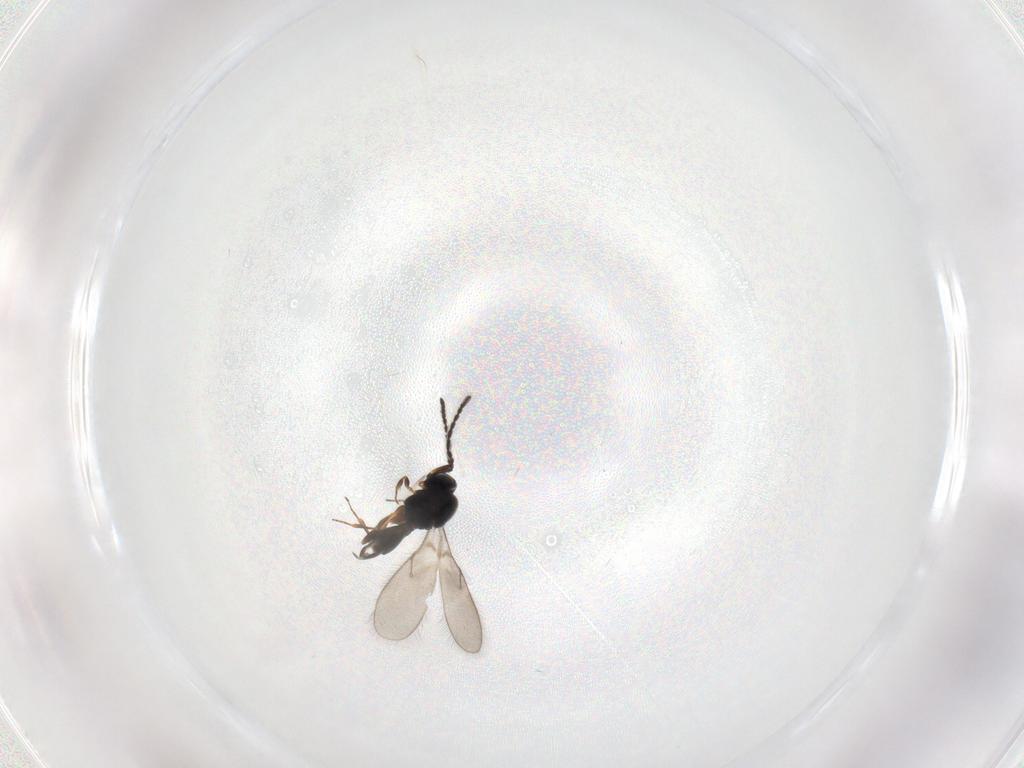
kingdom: Animalia
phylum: Arthropoda
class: Insecta
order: Hymenoptera
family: Scelionidae
